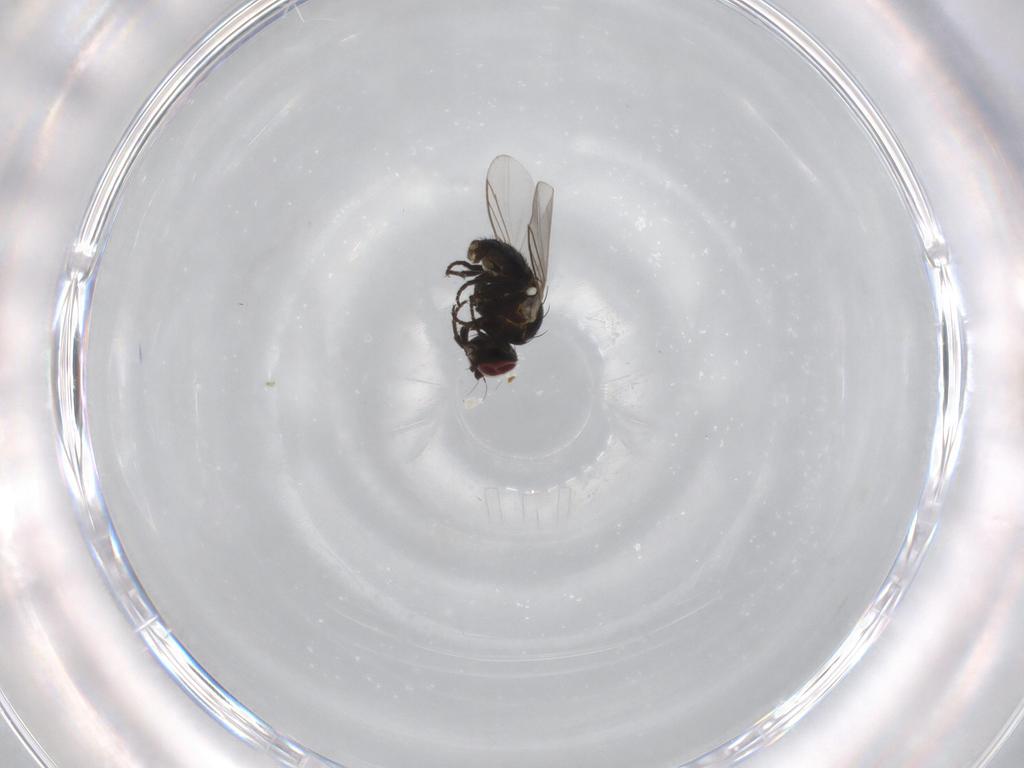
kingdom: Animalia
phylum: Arthropoda
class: Insecta
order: Diptera
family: Agromyzidae
